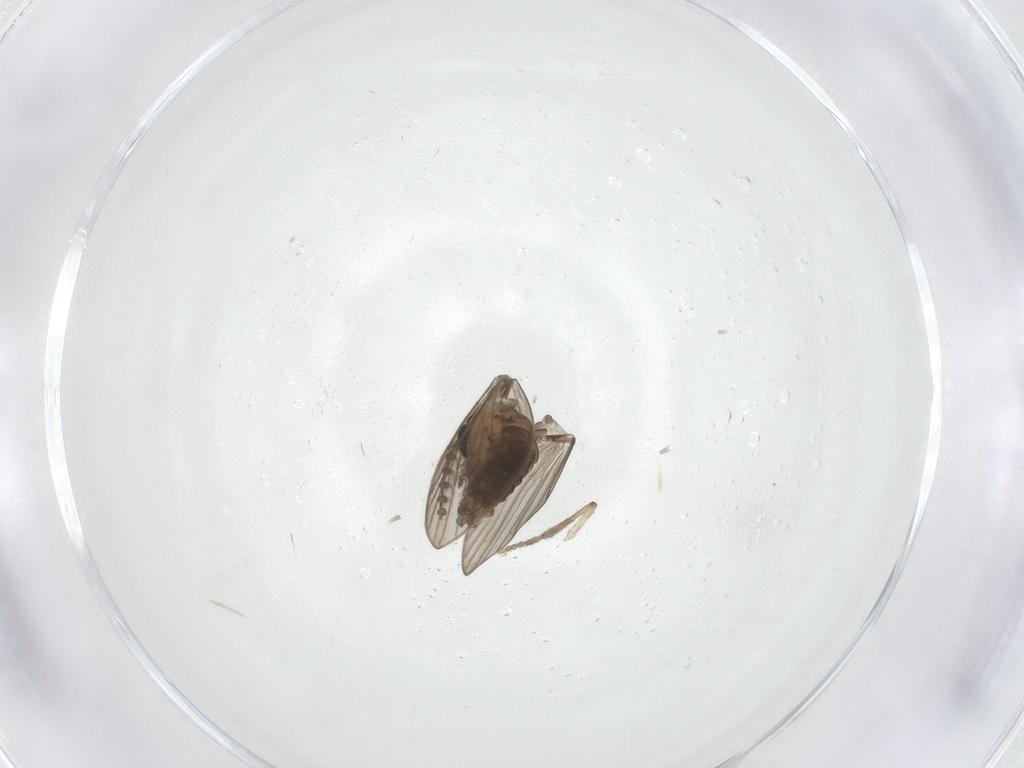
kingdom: Animalia
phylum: Arthropoda
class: Insecta
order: Diptera
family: Psychodidae
